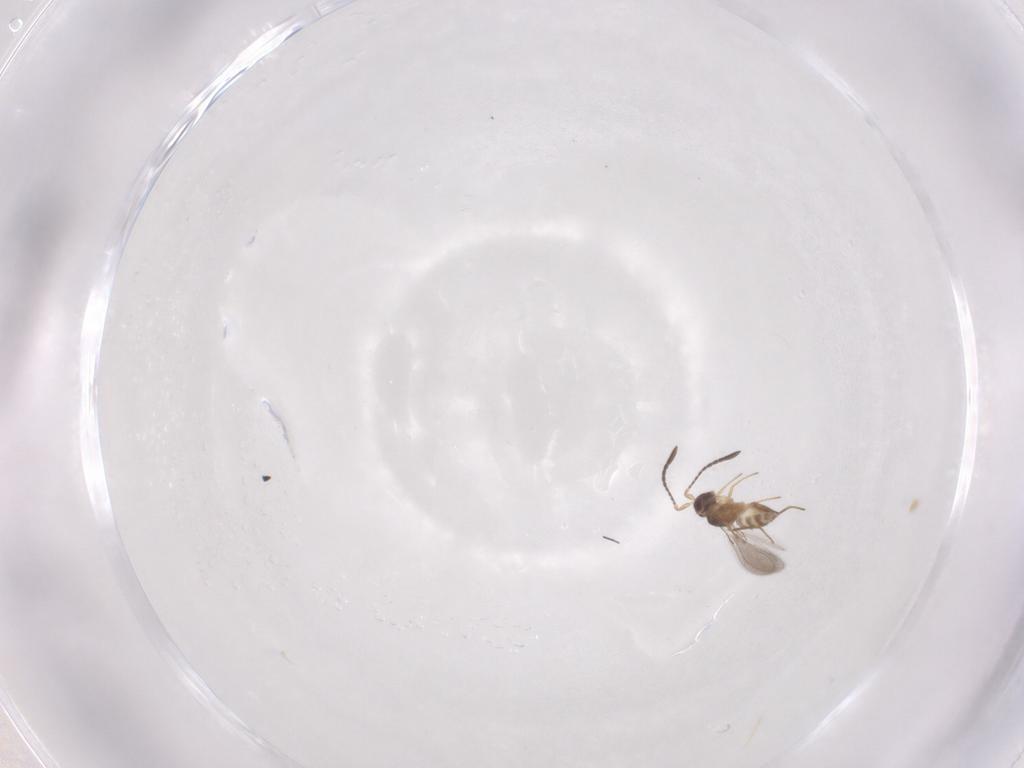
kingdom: Animalia
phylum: Arthropoda
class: Insecta
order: Hymenoptera
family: Mymaridae
